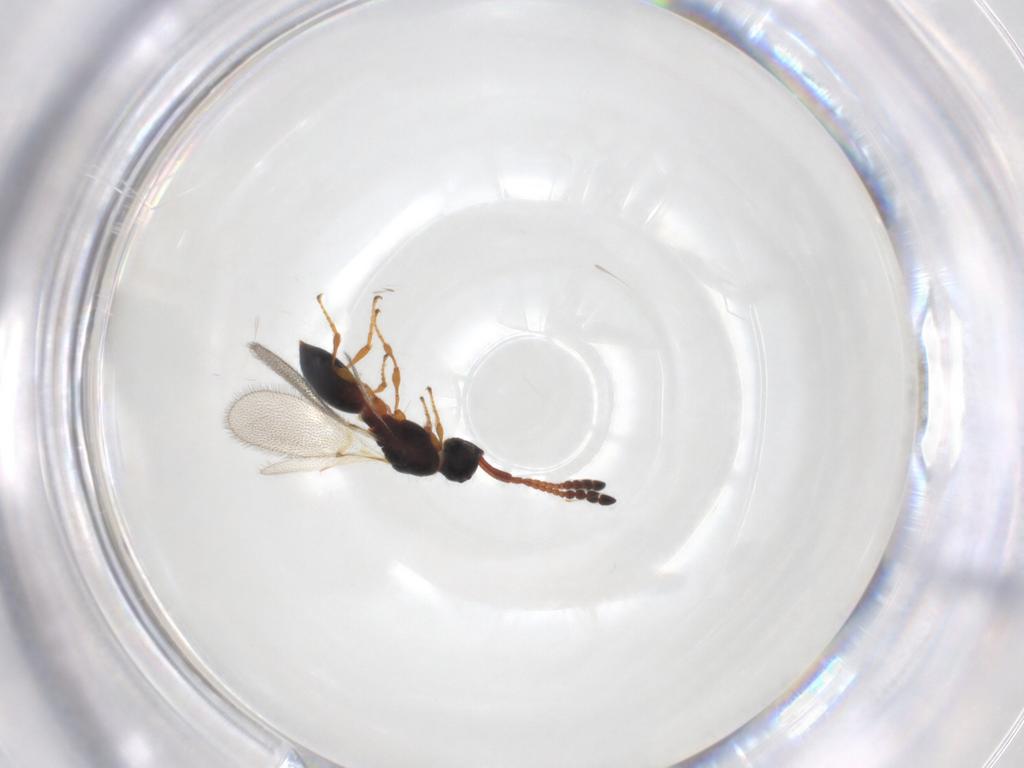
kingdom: Animalia
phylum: Arthropoda
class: Insecta
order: Hymenoptera
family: Diapriidae
